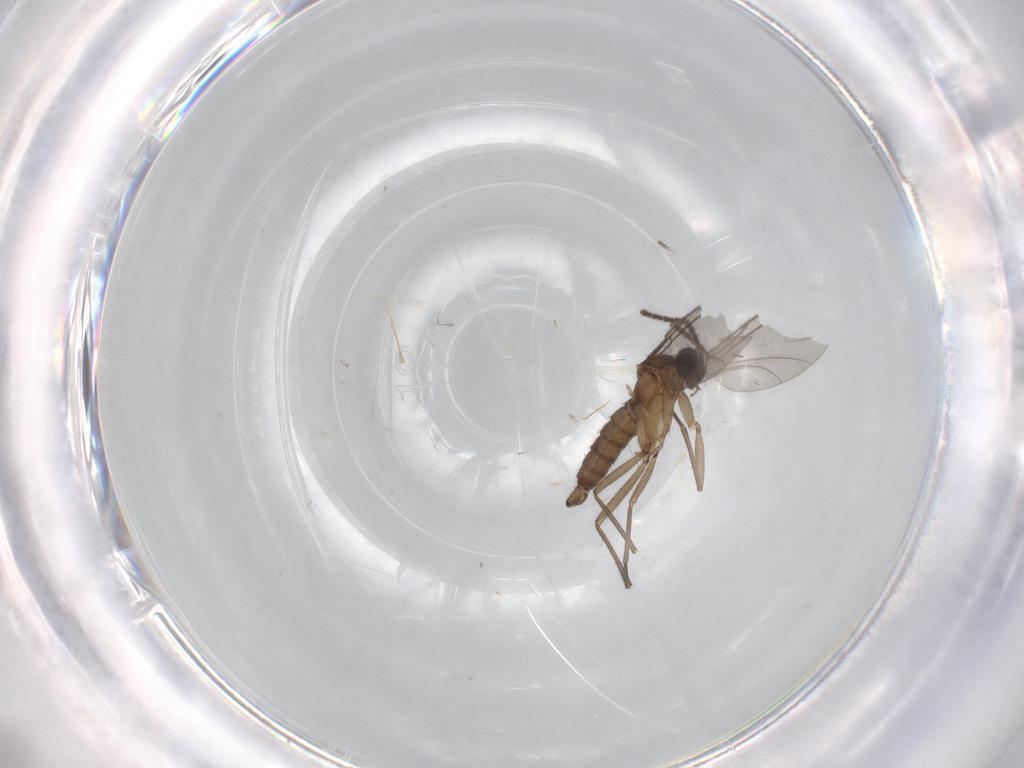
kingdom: Animalia
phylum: Arthropoda
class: Insecta
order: Diptera
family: Sciaridae
